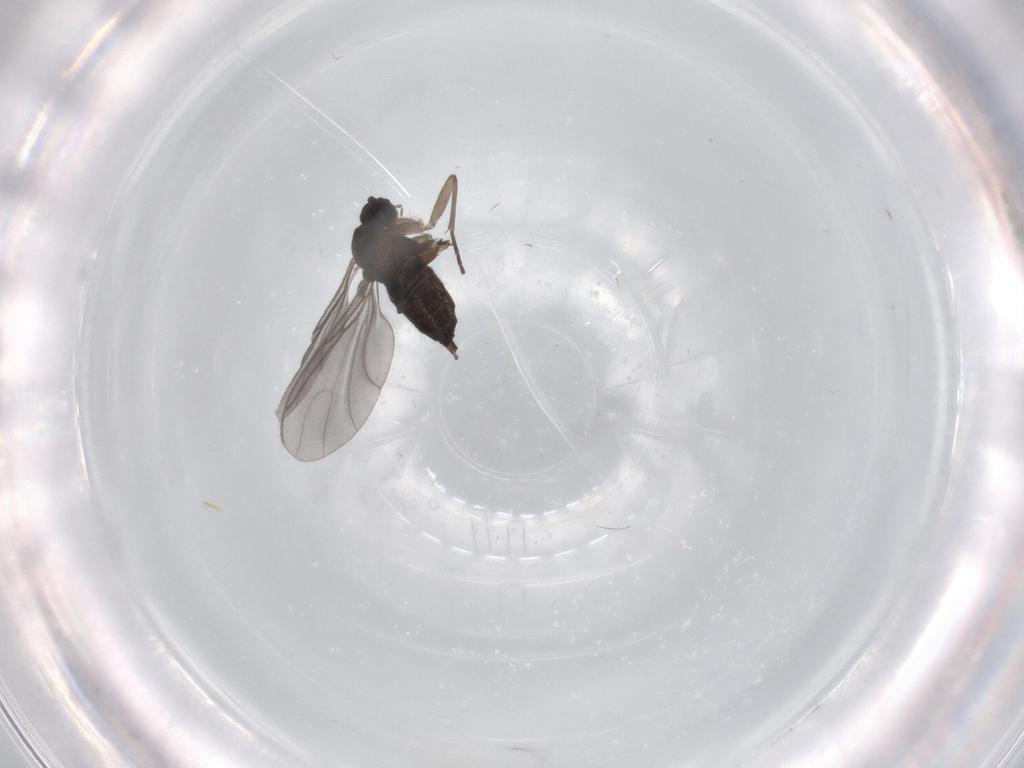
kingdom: Animalia
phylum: Arthropoda
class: Insecta
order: Diptera
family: Sciaridae
